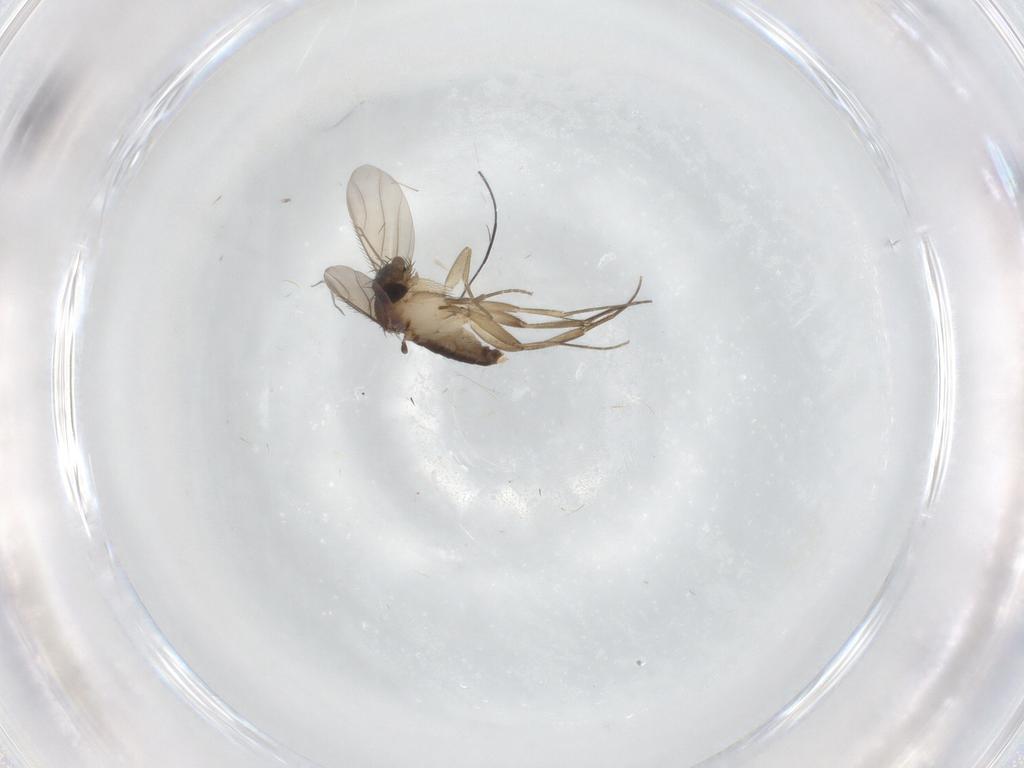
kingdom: Animalia
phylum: Arthropoda
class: Insecta
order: Diptera
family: Phoridae
